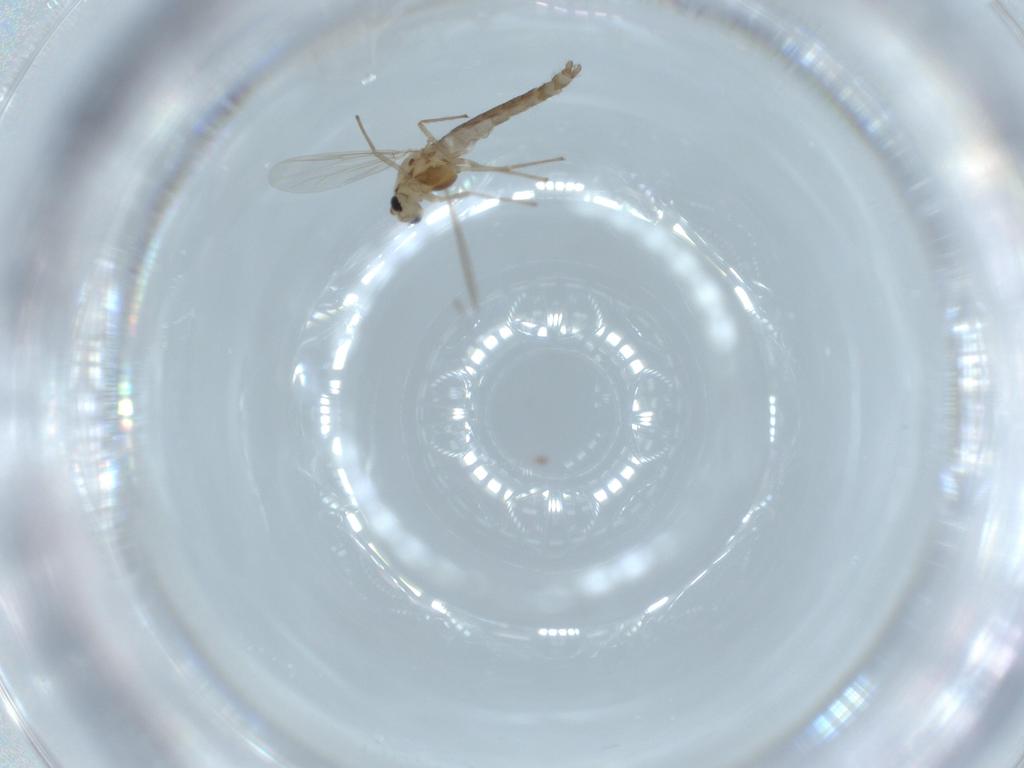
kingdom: Animalia
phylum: Arthropoda
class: Insecta
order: Diptera
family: Chironomidae
